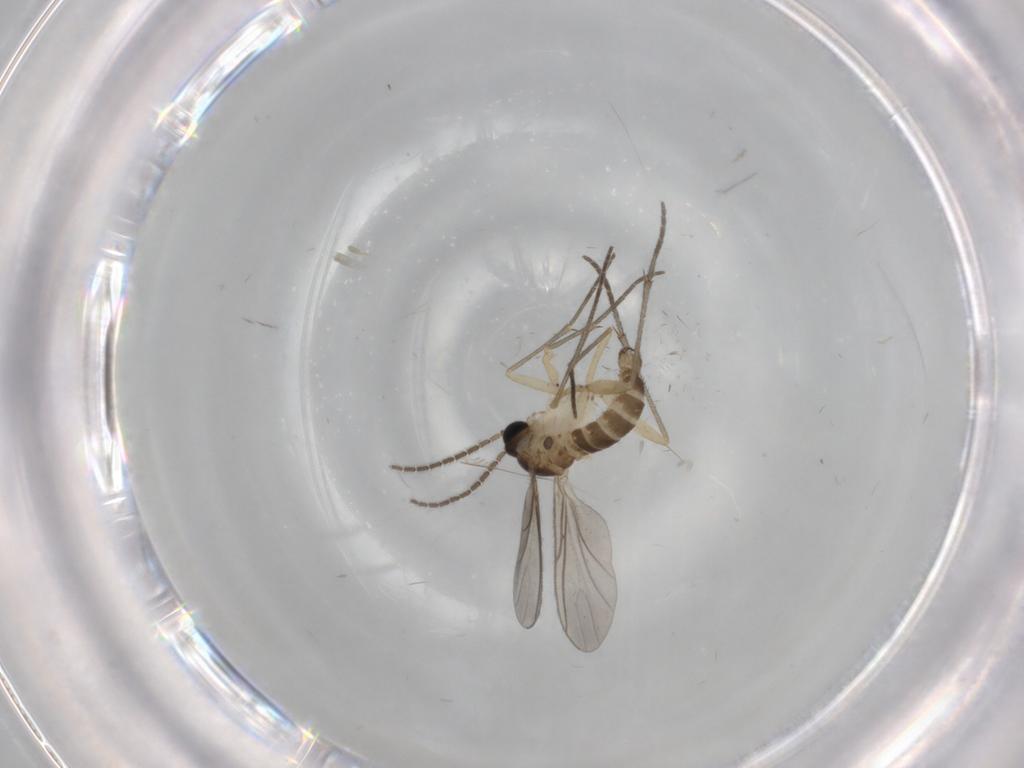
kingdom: Animalia
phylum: Arthropoda
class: Insecta
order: Diptera
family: Sciaridae
